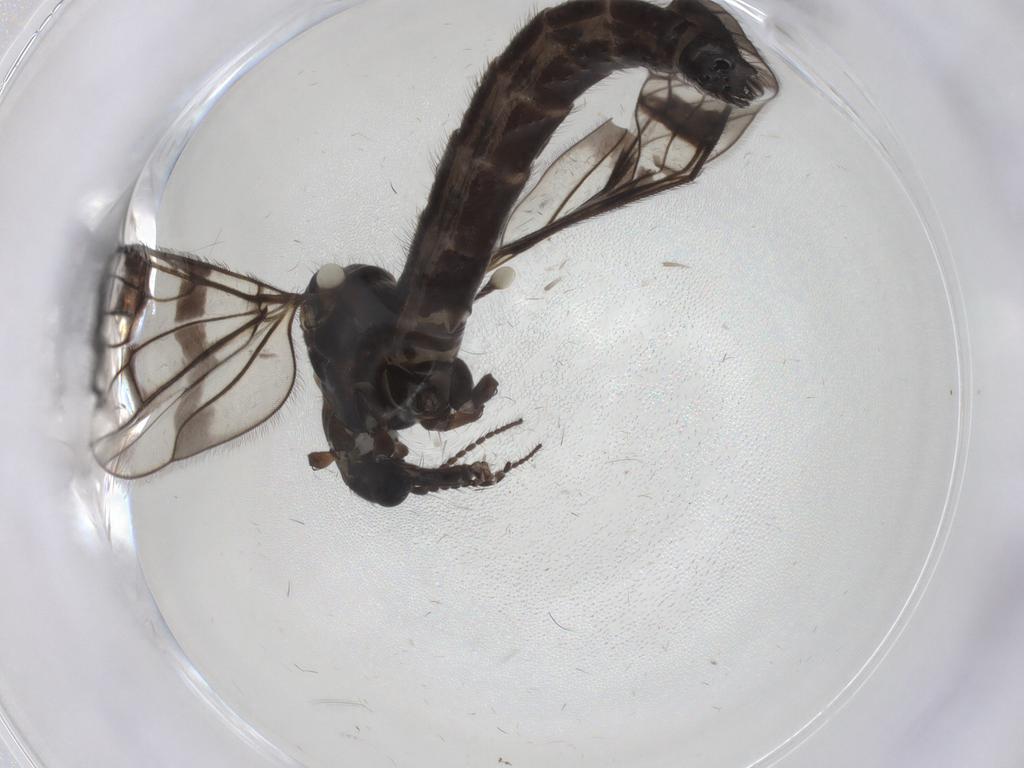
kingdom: Animalia
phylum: Arthropoda
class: Insecta
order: Diptera
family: Limoniidae
